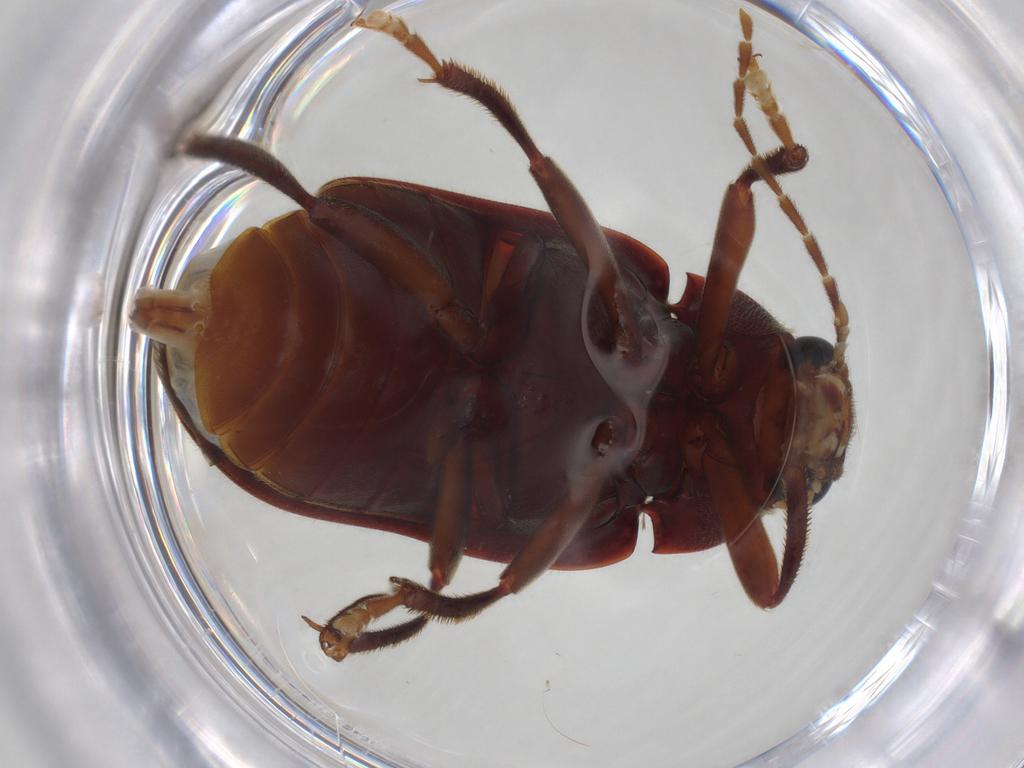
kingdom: Animalia
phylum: Arthropoda
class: Insecta
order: Coleoptera
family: Ptilodactylidae
